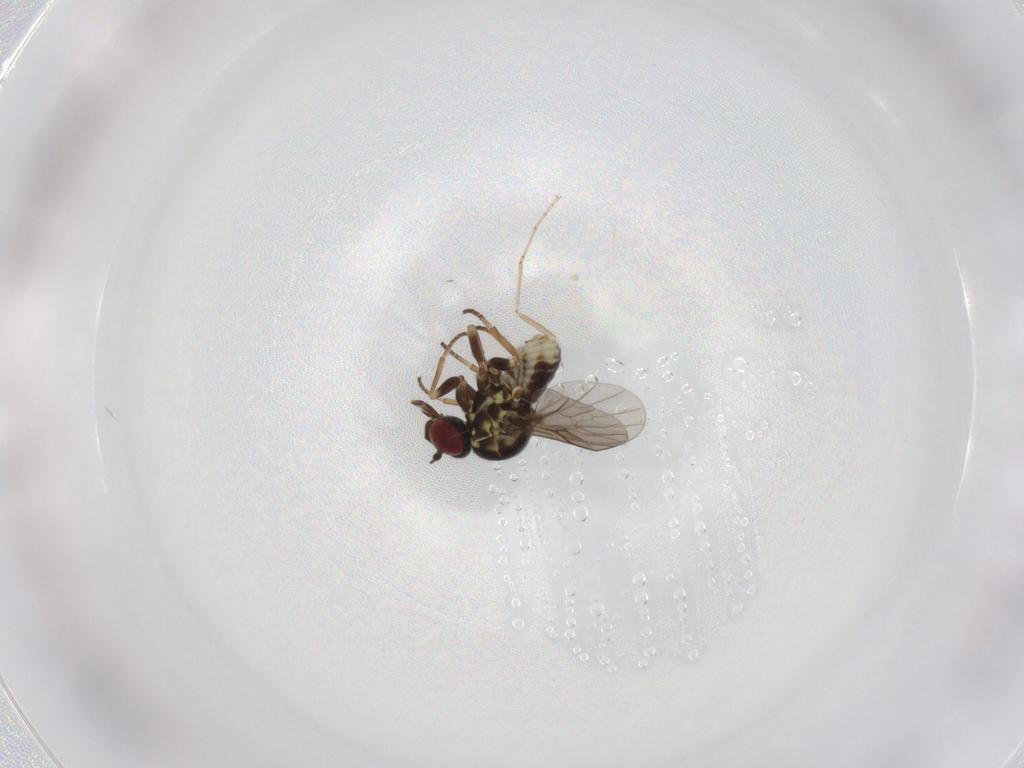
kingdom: Animalia
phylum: Arthropoda
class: Insecta
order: Diptera
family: Bombyliidae
